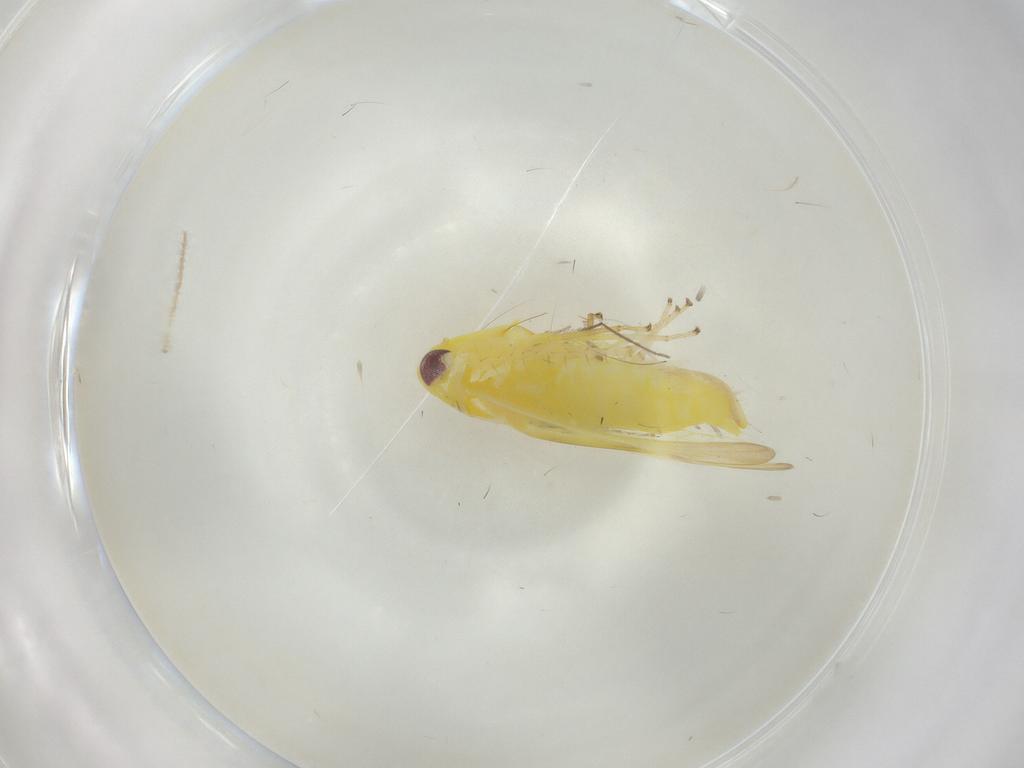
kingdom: Animalia
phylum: Arthropoda
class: Insecta
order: Hemiptera
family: Cicadellidae
